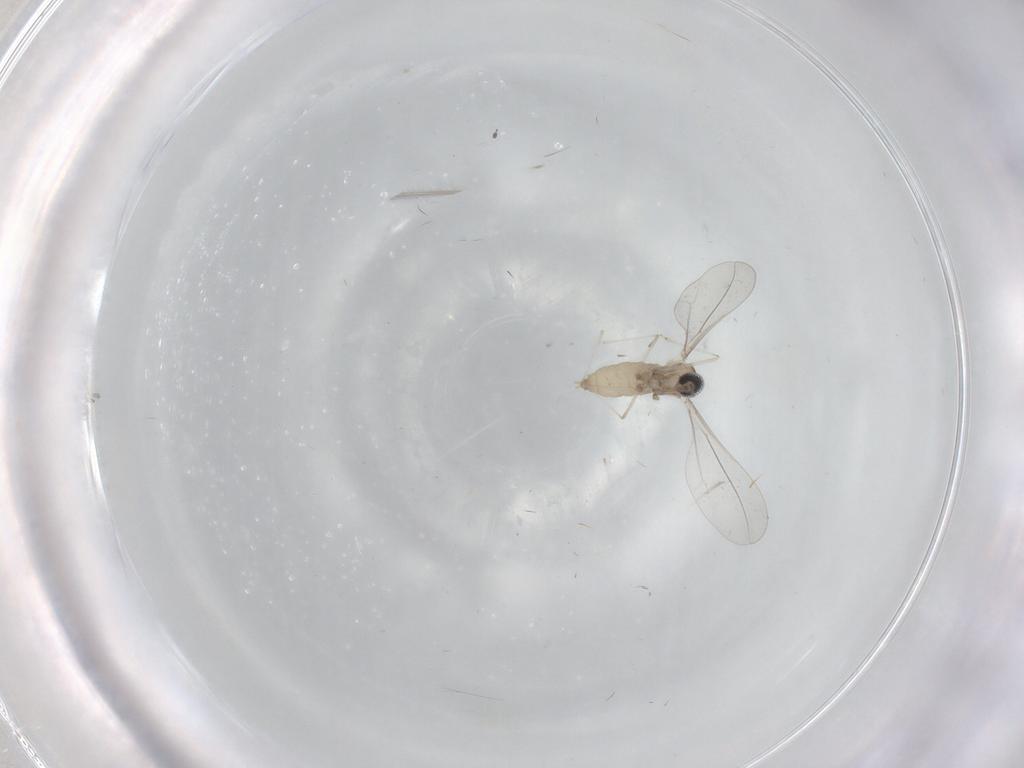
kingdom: Animalia
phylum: Arthropoda
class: Insecta
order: Diptera
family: Cecidomyiidae
